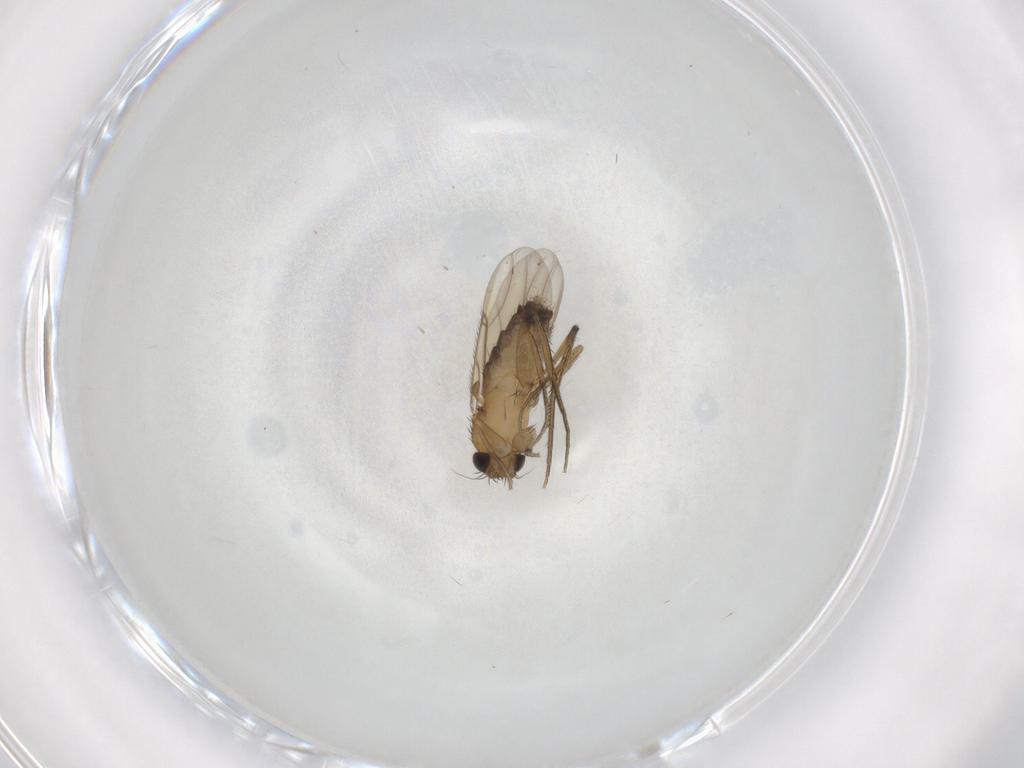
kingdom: Animalia
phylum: Arthropoda
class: Insecta
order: Diptera
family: Phoridae
